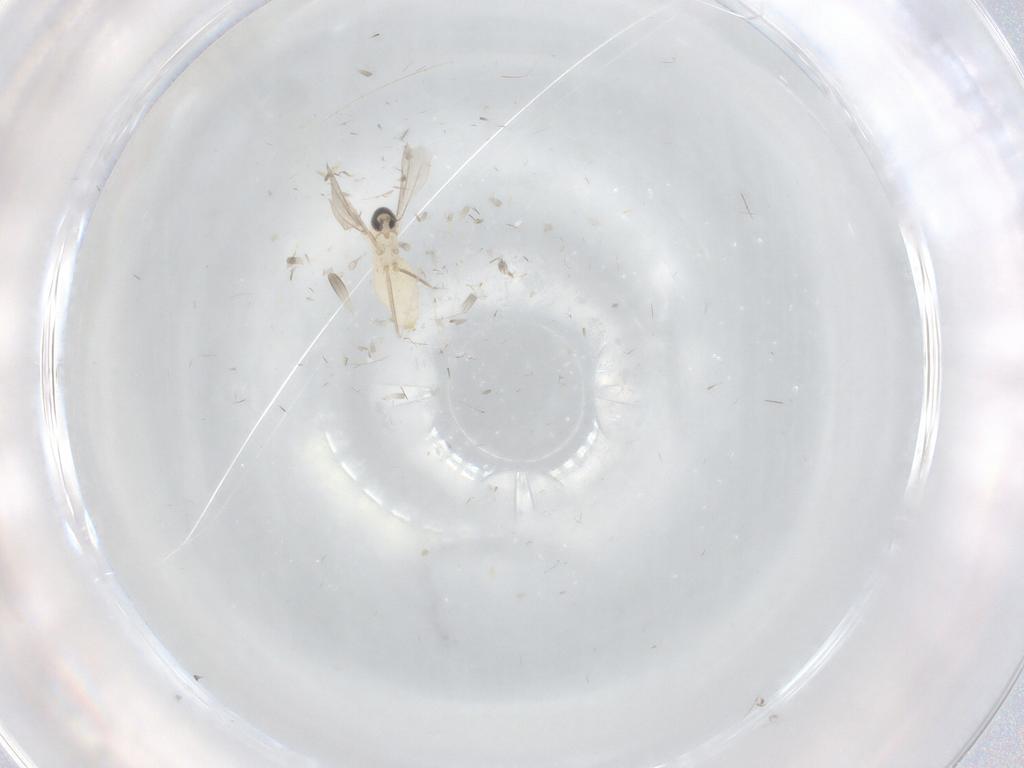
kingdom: Animalia
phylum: Arthropoda
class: Insecta
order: Diptera
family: Cecidomyiidae
